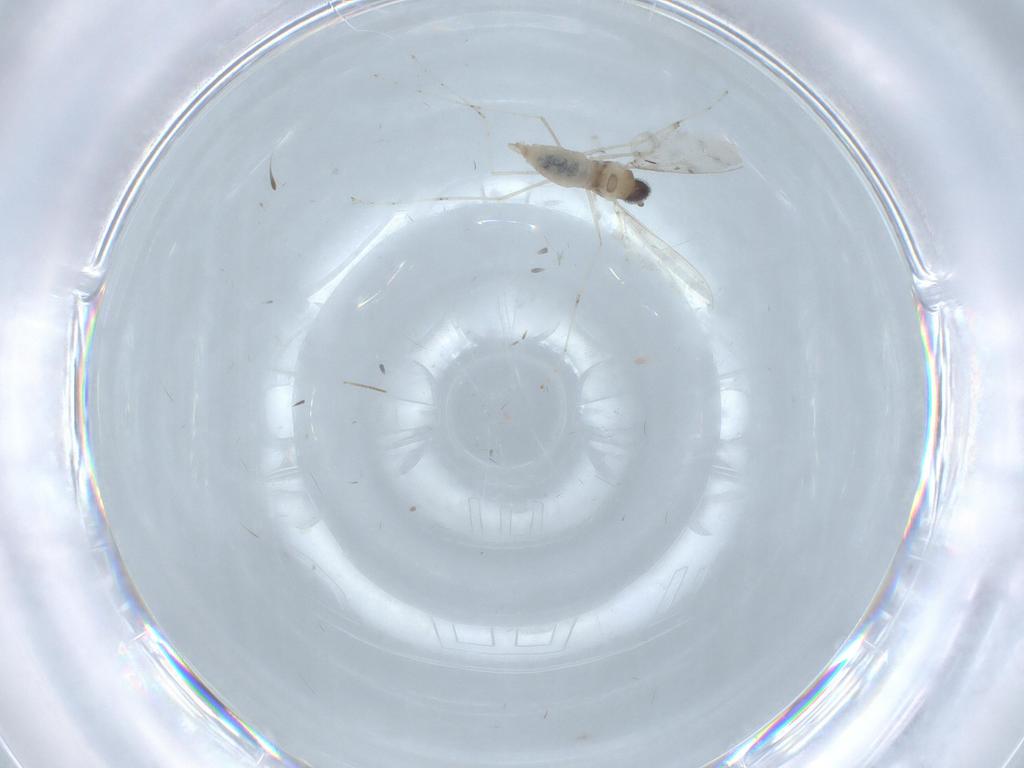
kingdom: Animalia
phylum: Arthropoda
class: Insecta
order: Diptera
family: Cecidomyiidae
